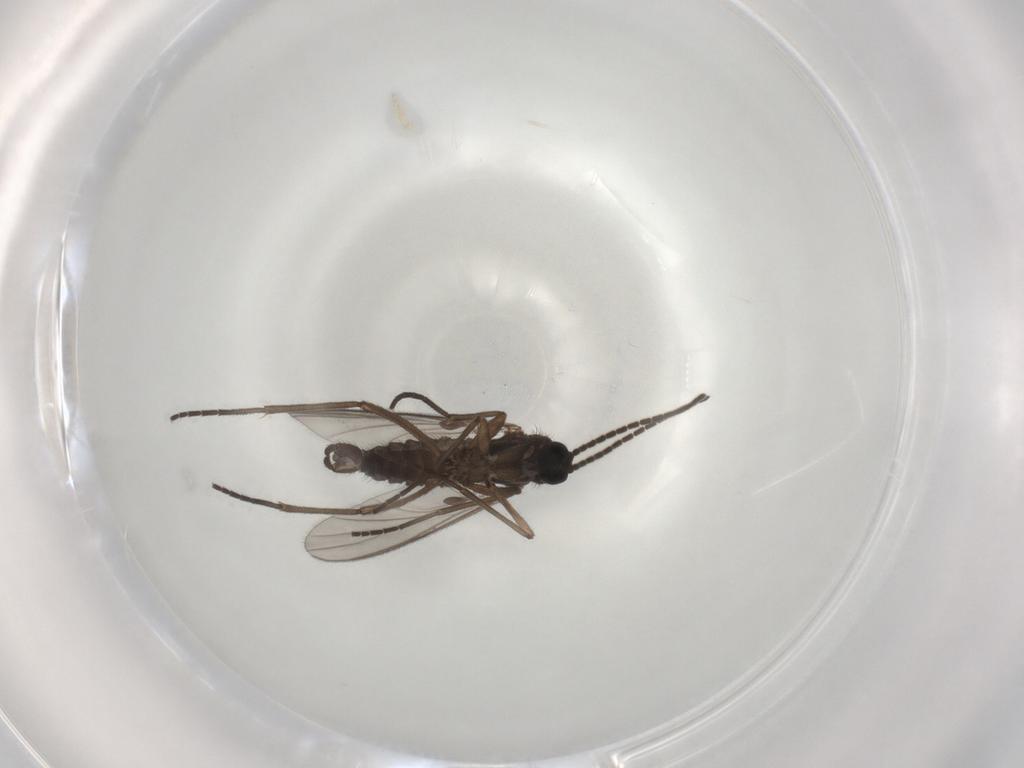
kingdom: Animalia
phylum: Arthropoda
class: Insecta
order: Diptera
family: Sciaridae
